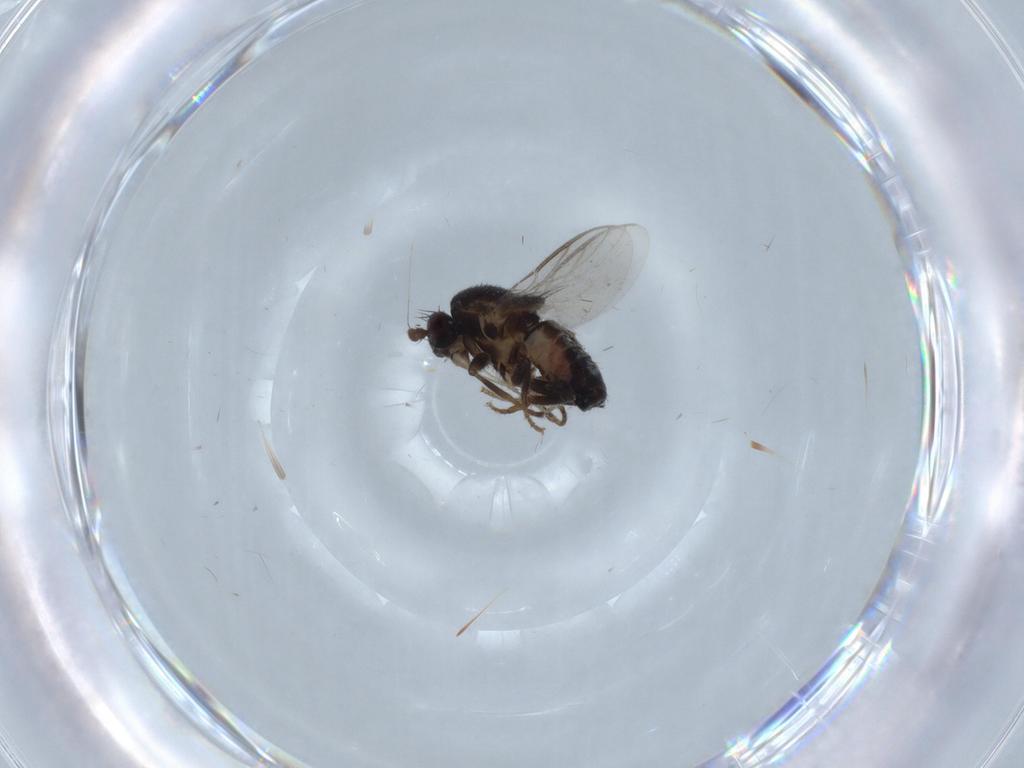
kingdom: Animalia
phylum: Arthropoda
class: Insecta
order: Diptera
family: Sphaeroceridae
